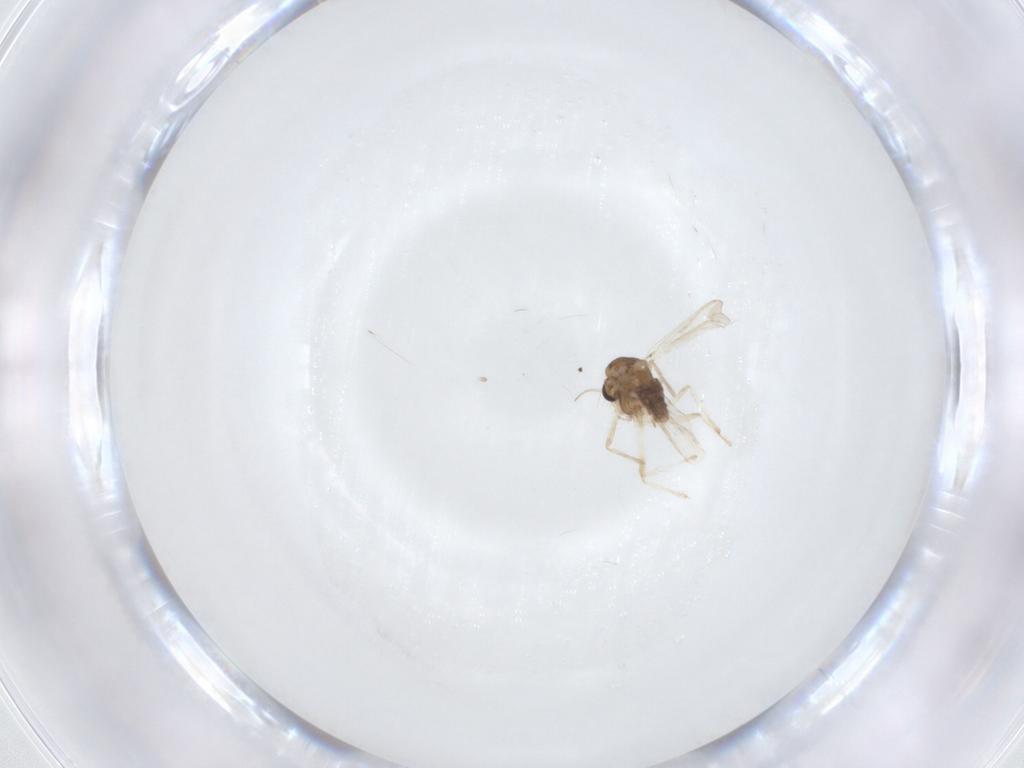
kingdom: Animalia
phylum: Arthropoda
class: Insecta
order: Diptera
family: Chironomidae
